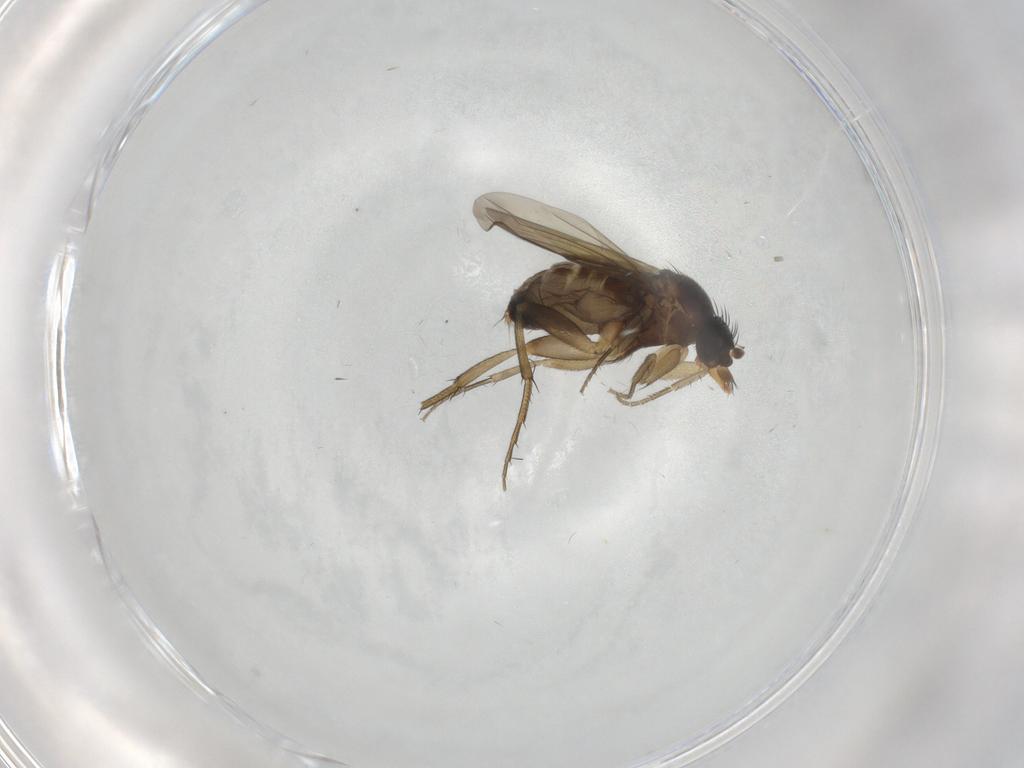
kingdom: Animalia
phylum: Arthropoda
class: Insecta
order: Diptera
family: Phoridae
